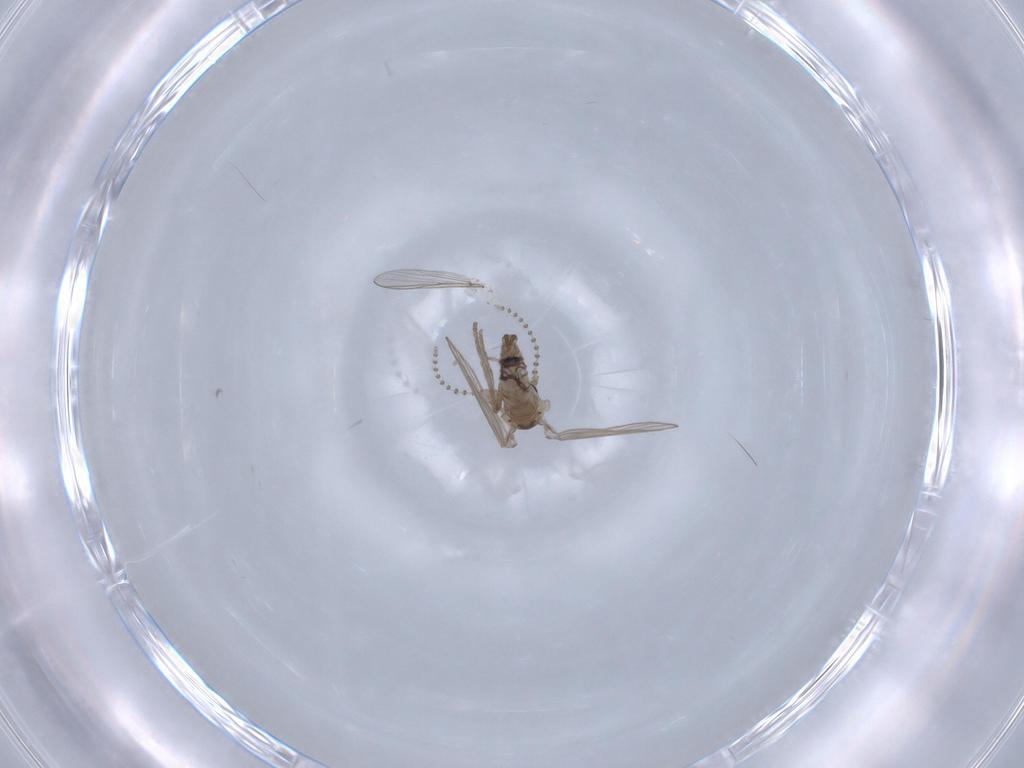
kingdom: Animalia
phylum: Arthropoda
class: Insecta
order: Diptera
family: Psychodidae
